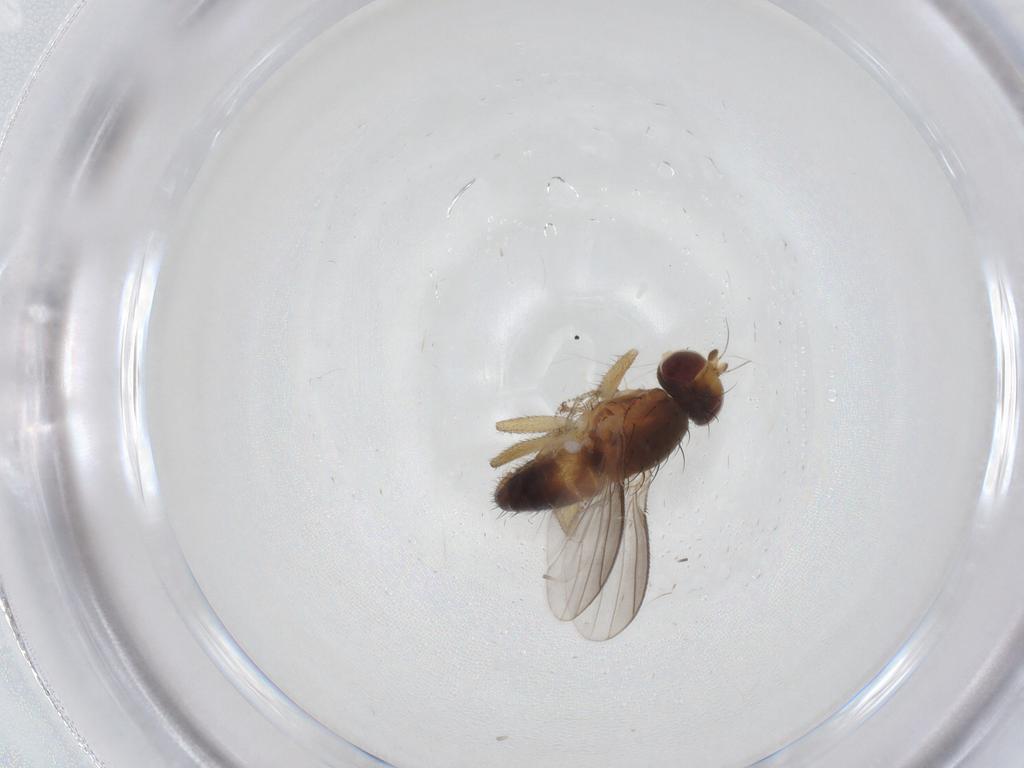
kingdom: Animalia
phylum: Arthropoda
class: Insecta
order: Diptera
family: Heleomyzidae
